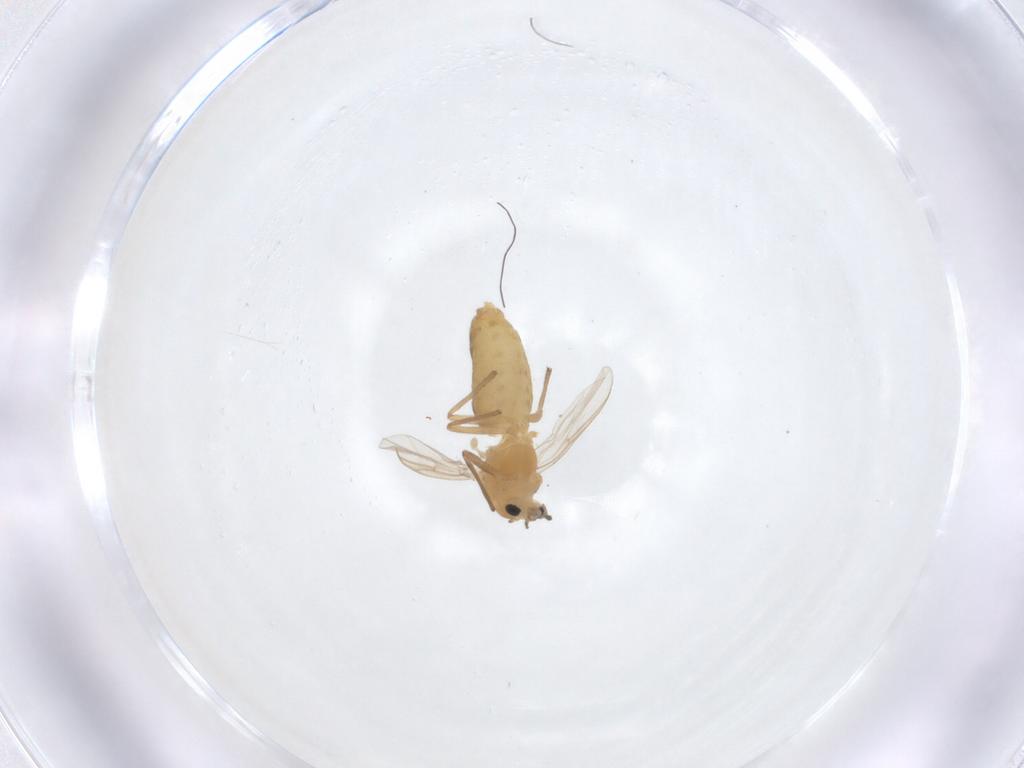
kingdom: Animalia
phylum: Arthropoda
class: Insecta
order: Diptera
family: Chironomidae
